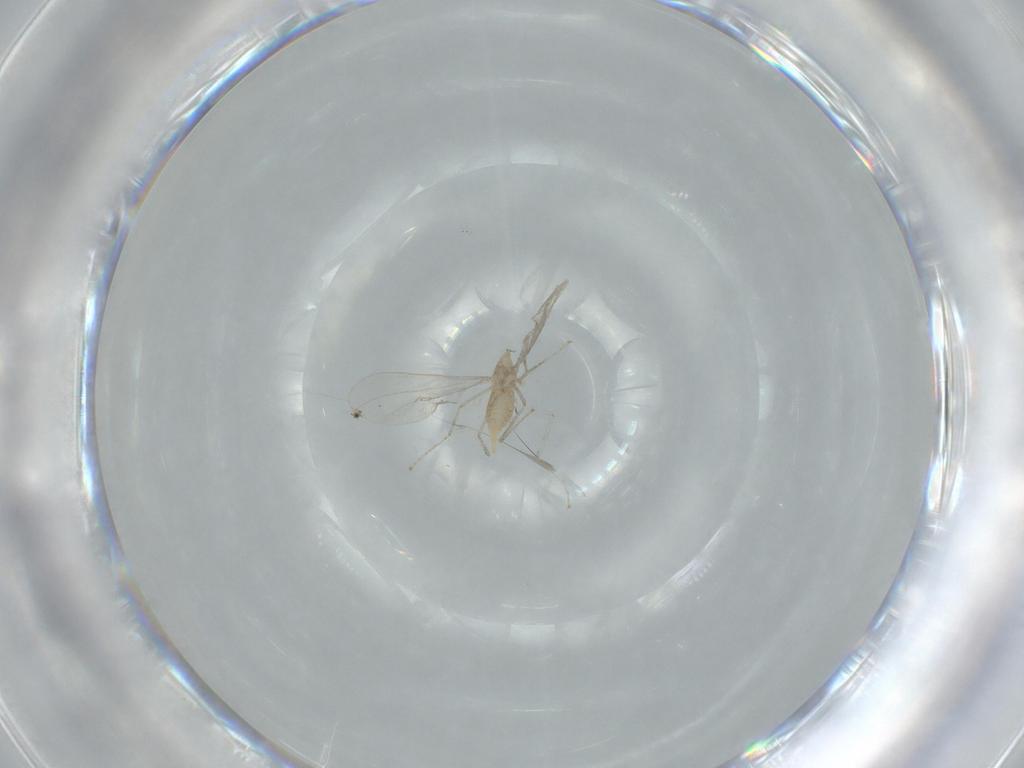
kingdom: Animalia
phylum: Arthropoda
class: Insecta
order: Diptera
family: Cecidomyiidae
